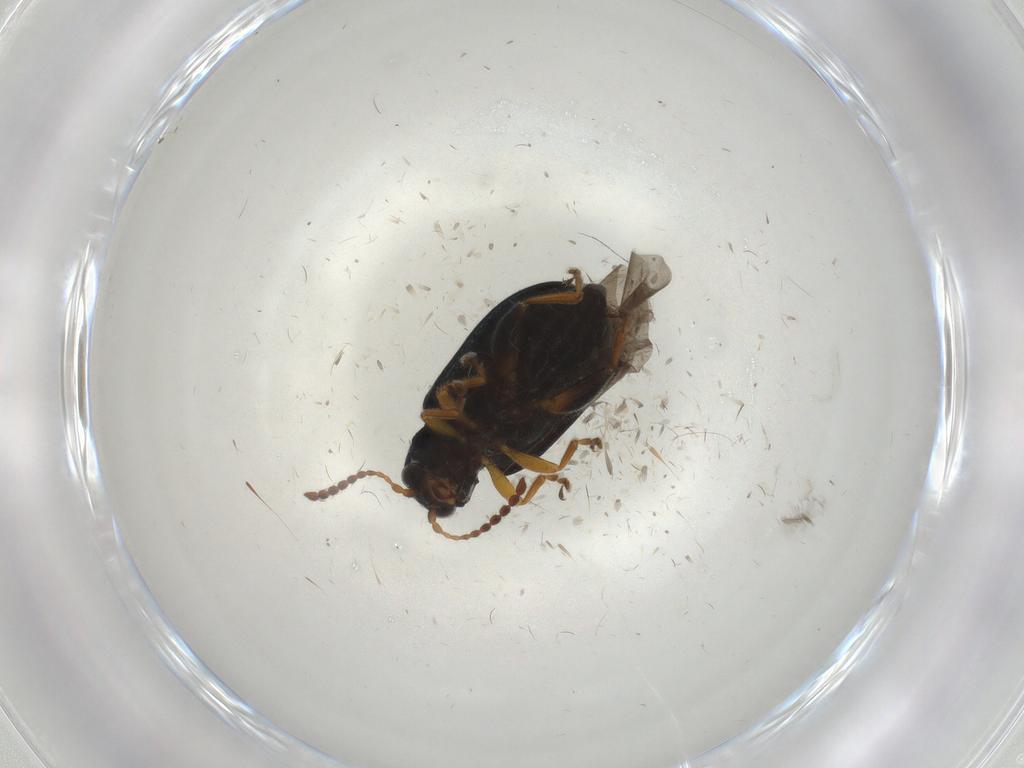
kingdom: Animalia
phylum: Arthropoda
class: Insecta
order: Coleoptera
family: Chrysomelidae
